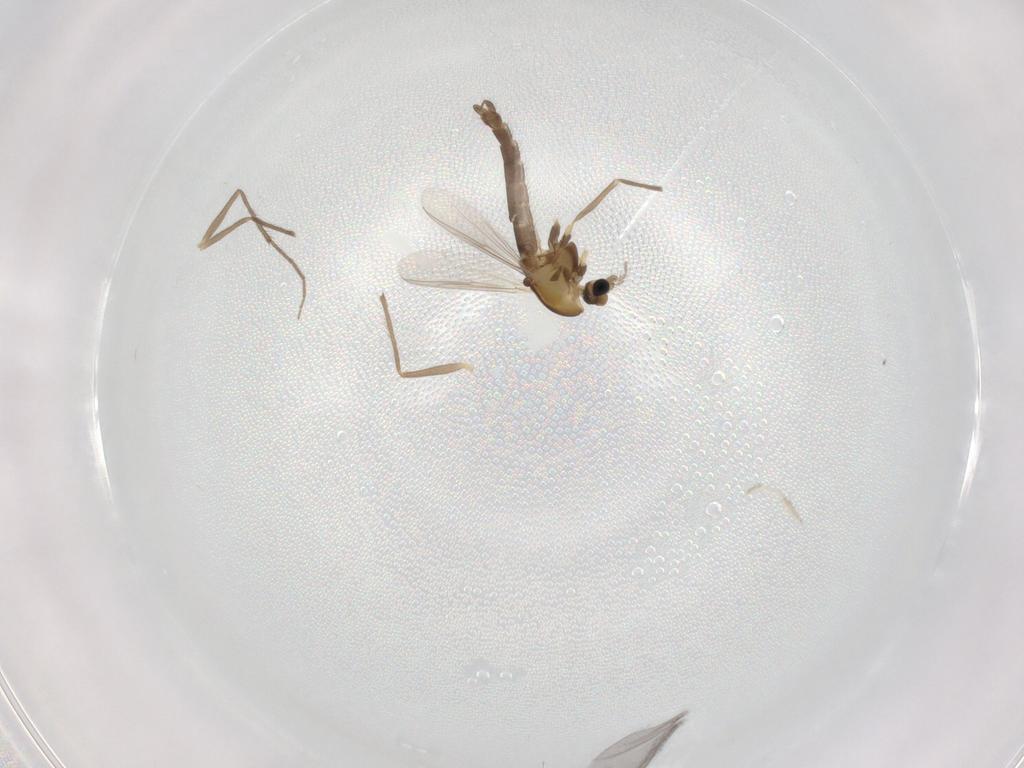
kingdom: Animalia
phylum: Arthropoda
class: Insecta
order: Diptera
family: Chironomidae
